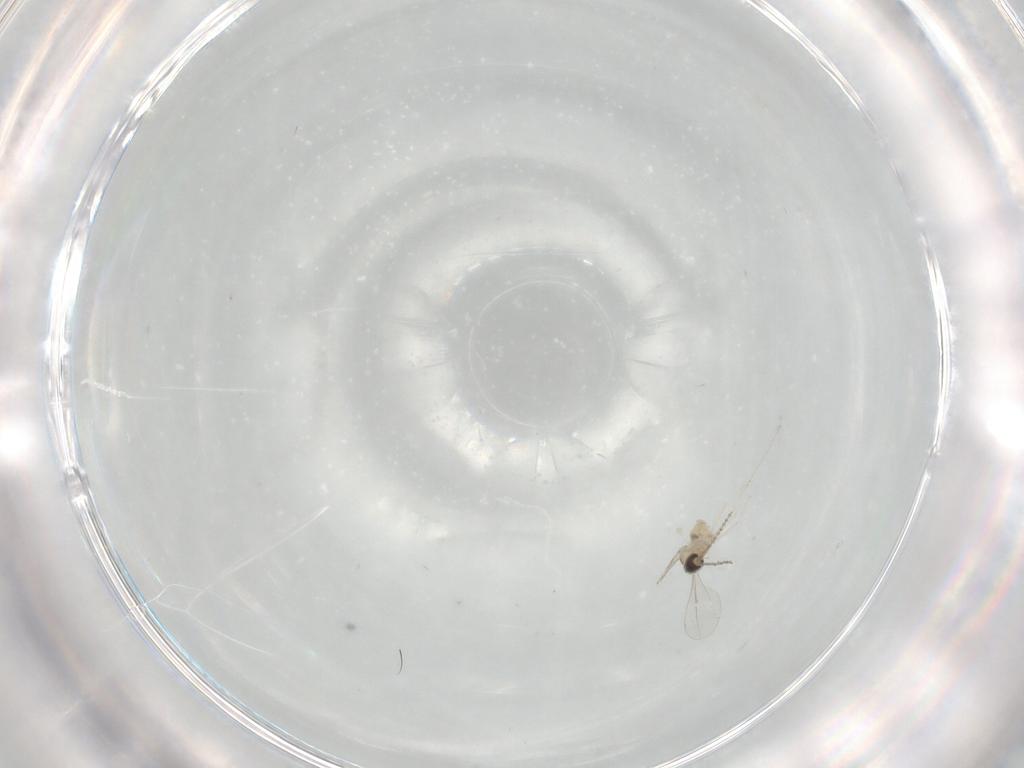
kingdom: Animalia
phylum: Arthropoda
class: Insecta
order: Diptera
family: Cecidomyiidae
